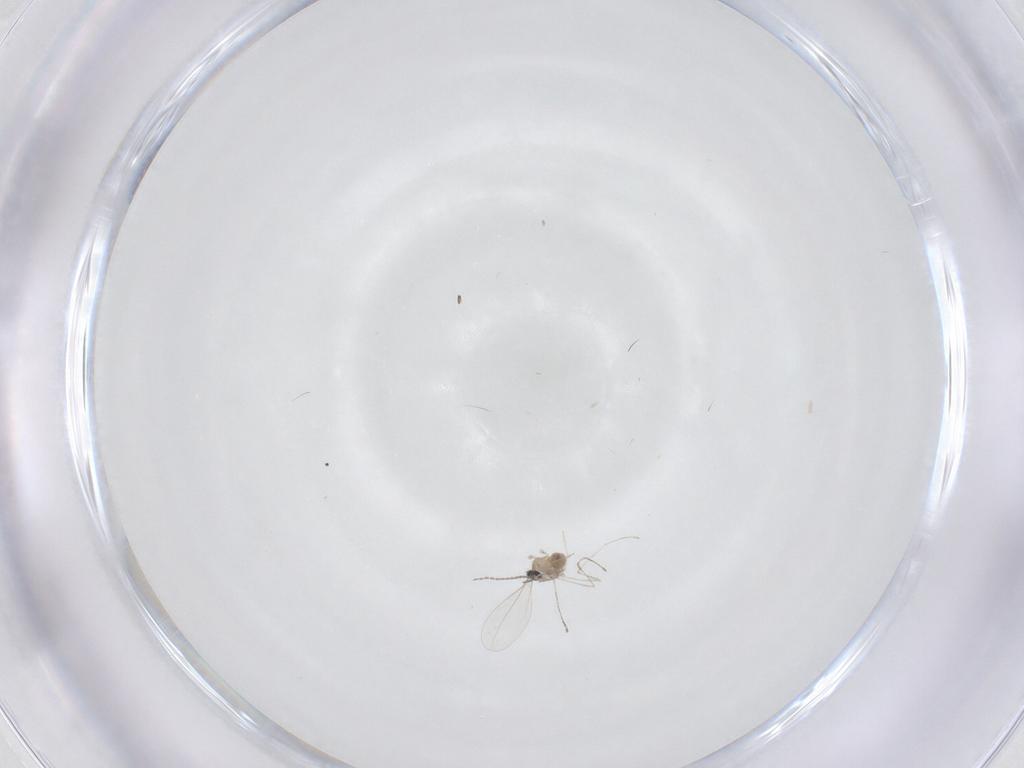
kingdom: Animalia
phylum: Arthropoda
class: Insecta
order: Diptera
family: Cecidomyiidae
